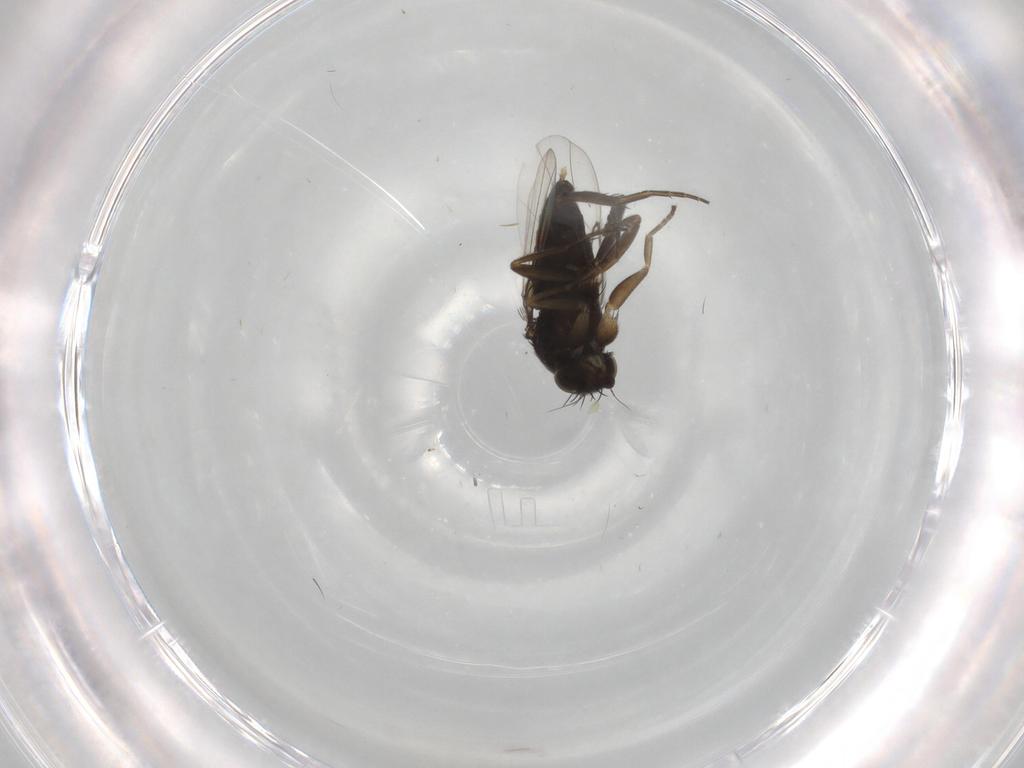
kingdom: Animalia
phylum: Arthropoda
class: Insecta
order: Diptera
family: Phoridae
